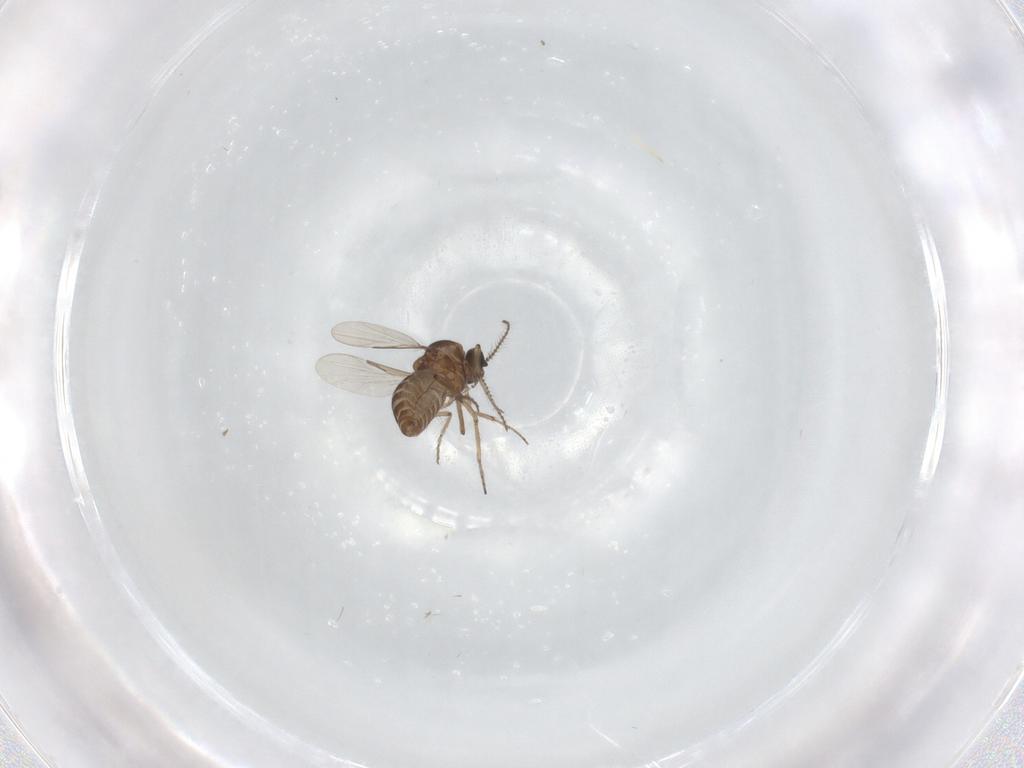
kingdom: Animalia
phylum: Arthropoda
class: Insecta
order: Diptera
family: Ceratopogonidae
